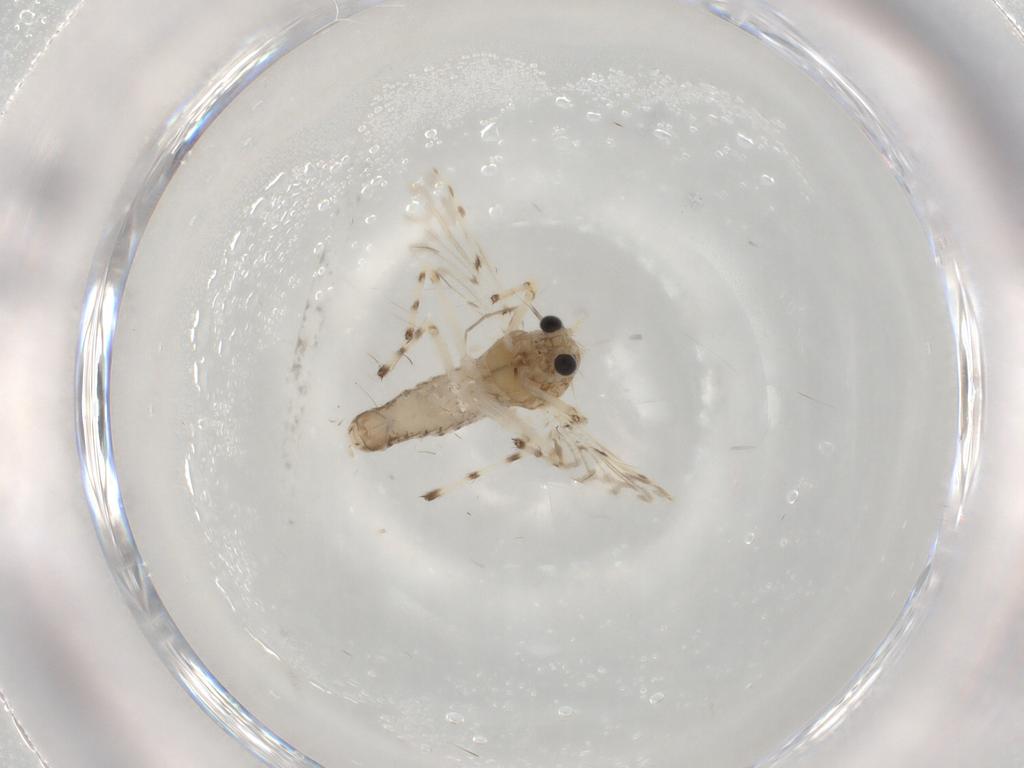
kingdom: Animalia
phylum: Arthropoda
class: Insecta
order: Diptera
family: Chironomidae
